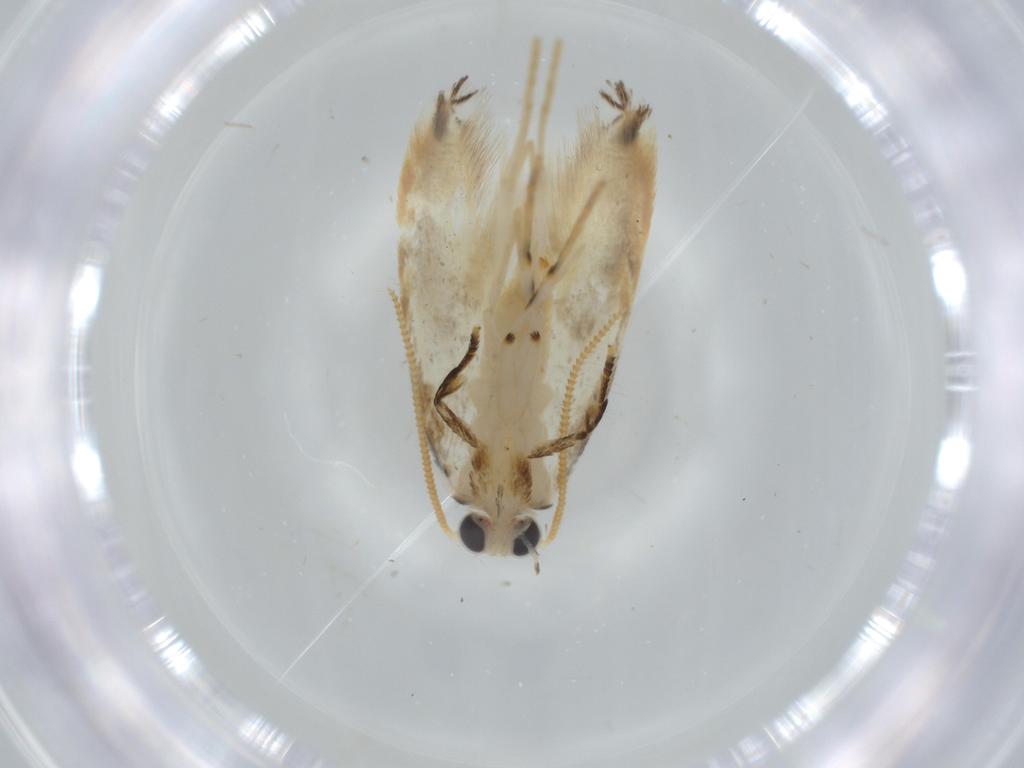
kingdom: Animalia
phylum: Arthropoda
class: Insecta
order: Lepidoptera
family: Tineidae
